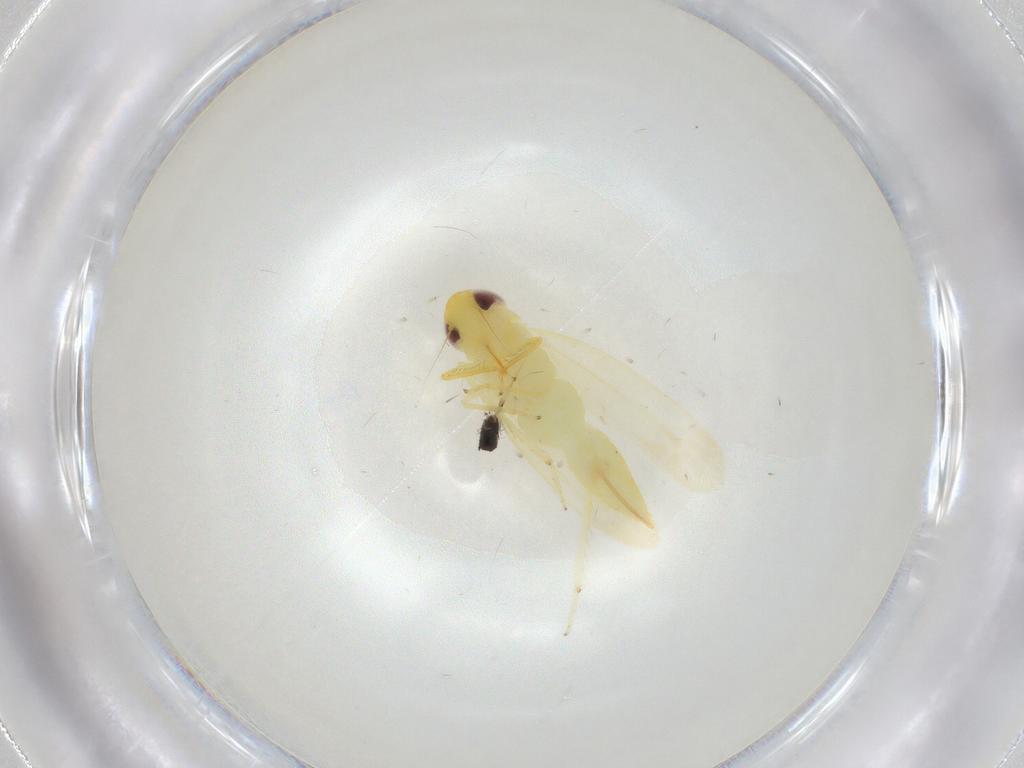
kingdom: Animalia
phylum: Arthropoda
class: Insecta
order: Hemiptera
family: Cicadellidae
